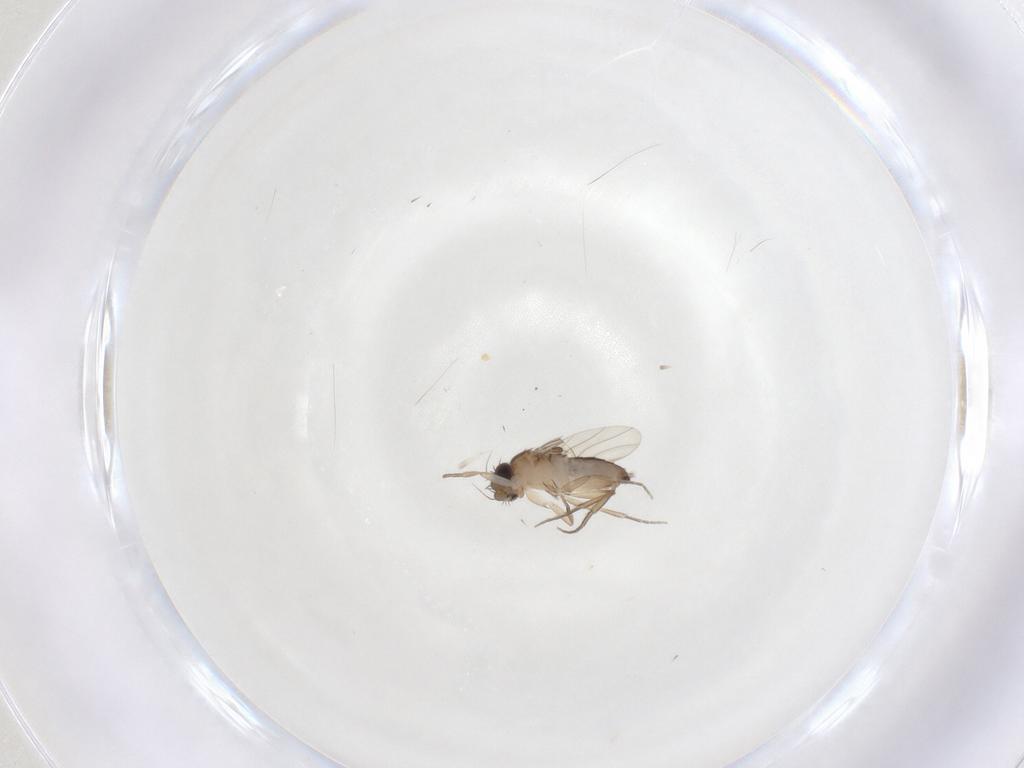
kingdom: Animalia
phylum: Arthropoda
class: Insecta
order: Diptera
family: Phoridae
